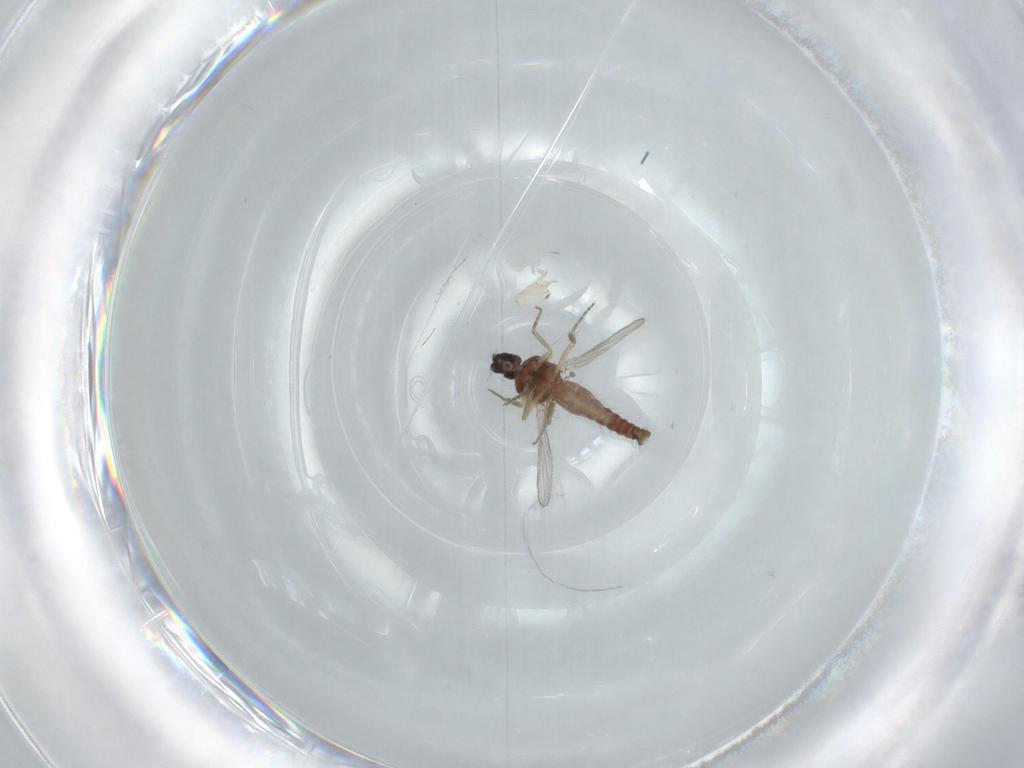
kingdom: Animalia
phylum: Arthropoda
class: Insecta
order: Diptera
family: Ceratopogonidae
